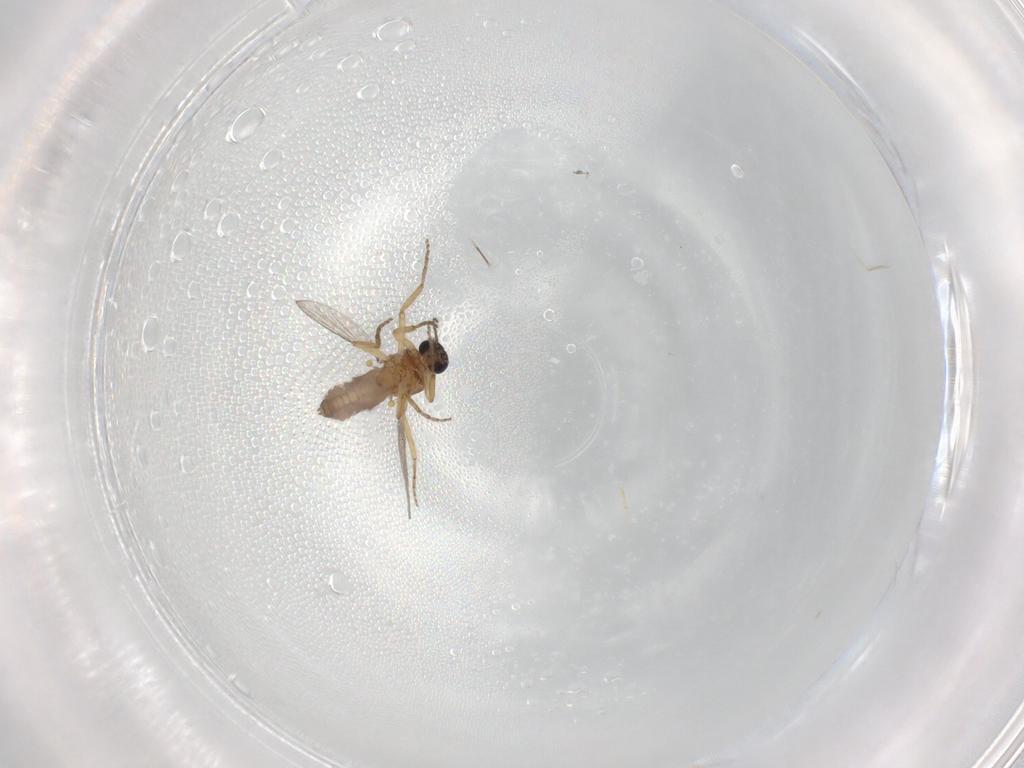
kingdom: Animalia
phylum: Arthropoda
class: Insecta
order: Diptera
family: Chironomidae
